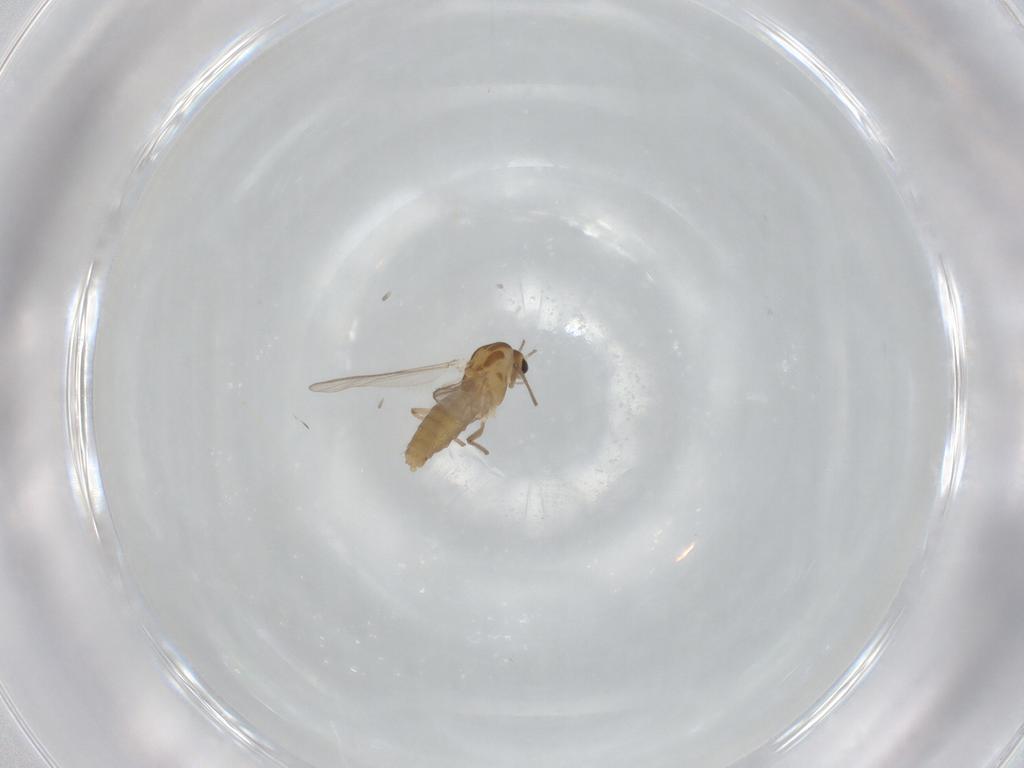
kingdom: Animalia
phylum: Arthropoda
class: Insecta
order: Diptera
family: Chironomidae
